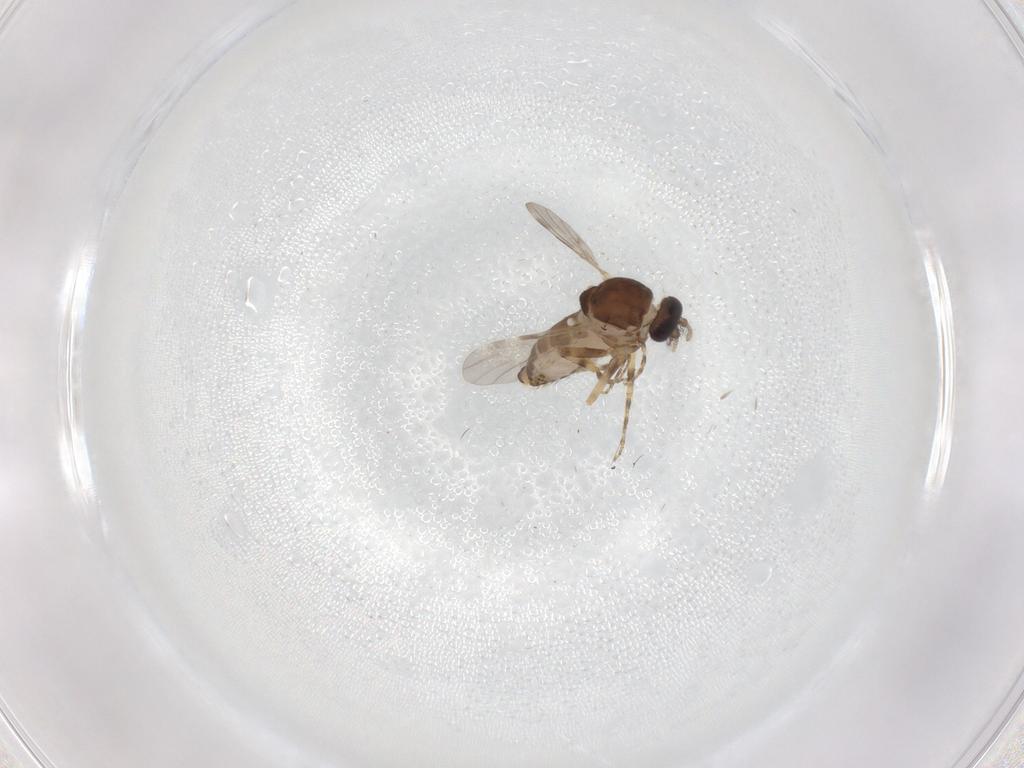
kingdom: Animalia
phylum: Arthropoda
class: Insecta
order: Diptera
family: Ceratopogonidae
